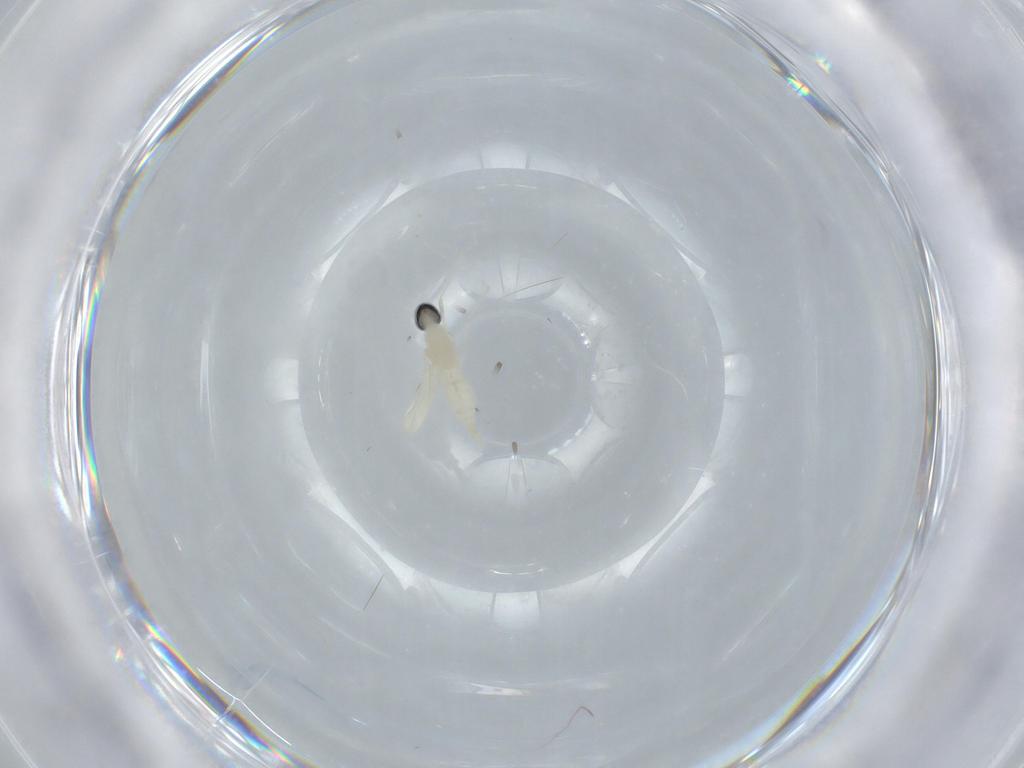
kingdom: Animalia
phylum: Arthropoda
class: Insecta
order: Diptera
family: Cecidomyiidae
